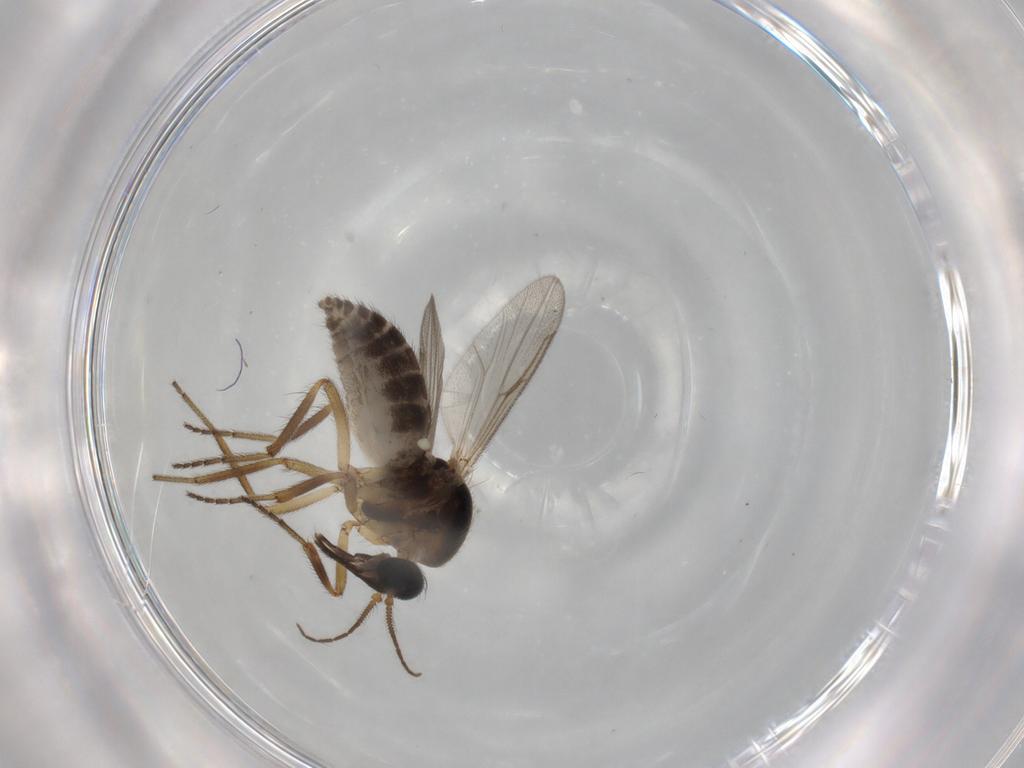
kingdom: Animalia
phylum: Arthropoda
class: Insecta
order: Diptera
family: Ceratopogonidae
